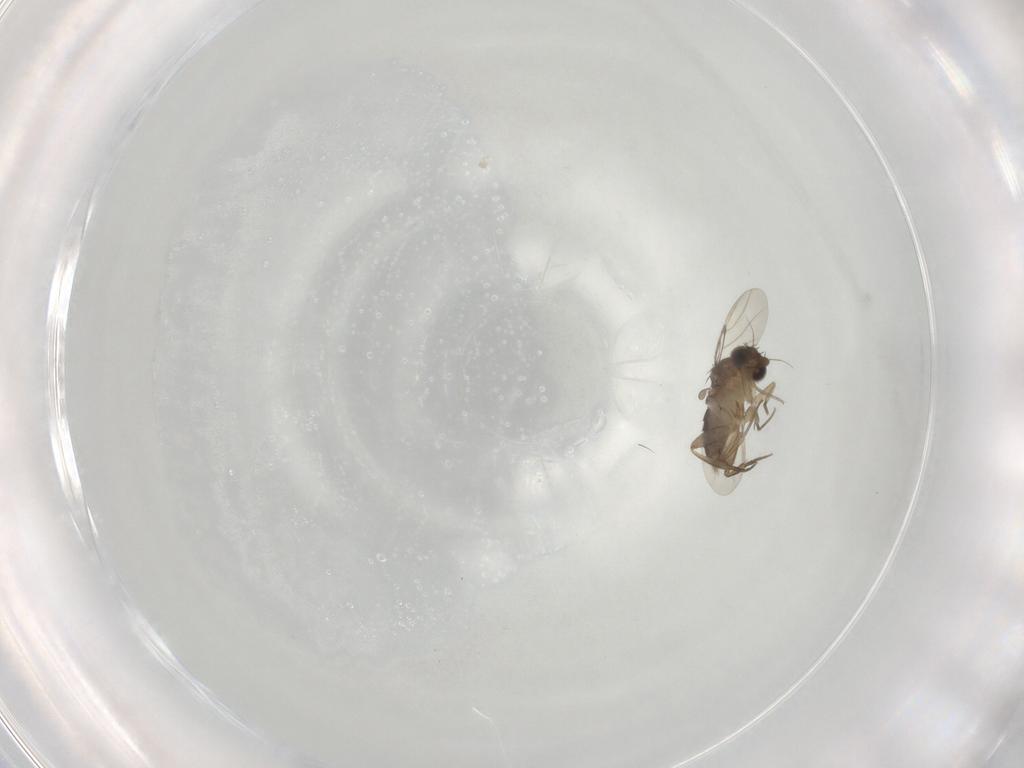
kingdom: Animalia
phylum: Arthropoda
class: Insecta
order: Diptera
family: Phoridae
